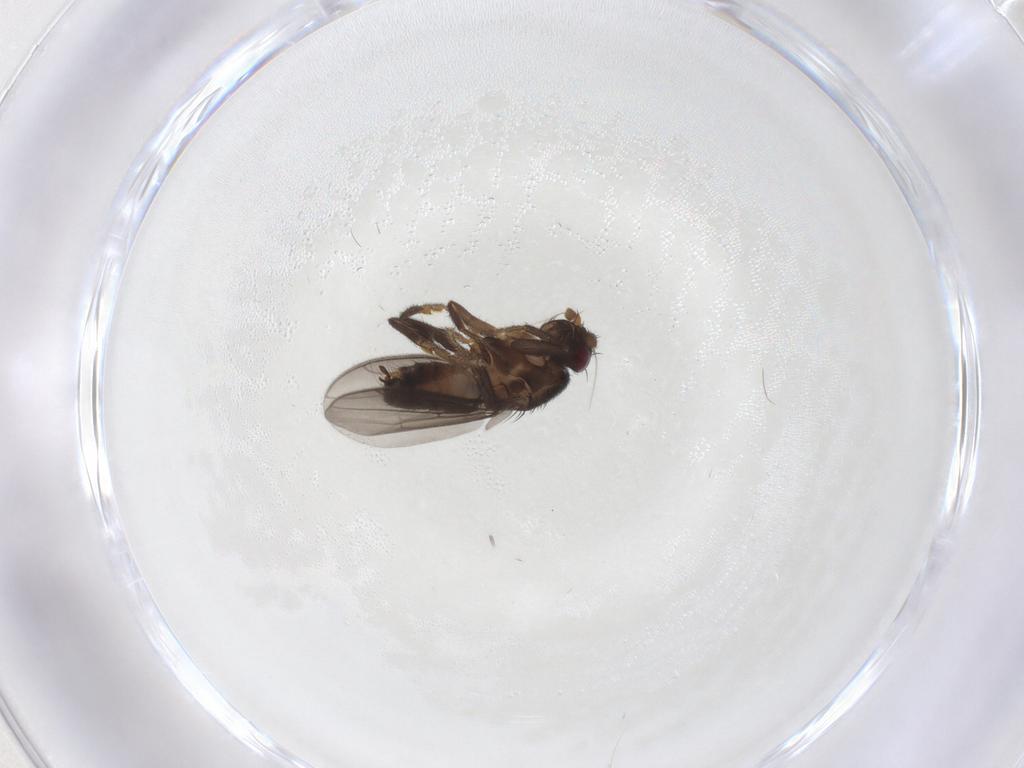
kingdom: Animalia
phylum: Arthropoda
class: Insecta
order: Diptera
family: Sphaeroceridae
